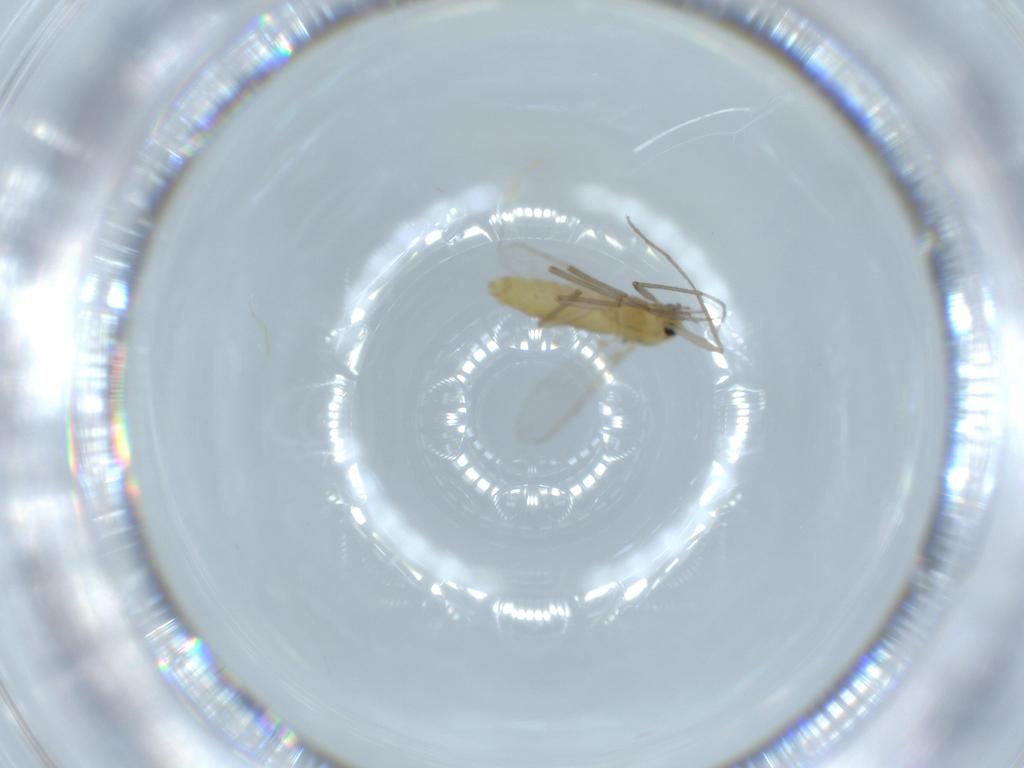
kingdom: Animalia
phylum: Arthropoda
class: Insecta
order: Diptera
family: Chironomidae
